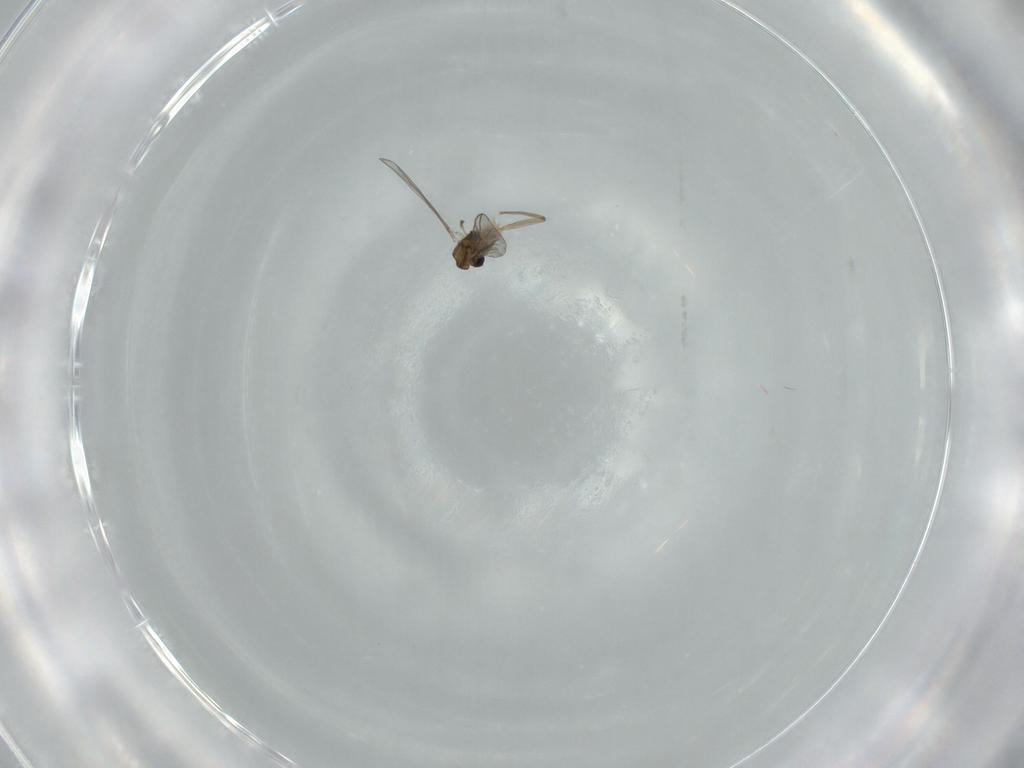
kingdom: Animalia
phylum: Arthropoda
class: Insecta
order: Diptera
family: Chironomidae
